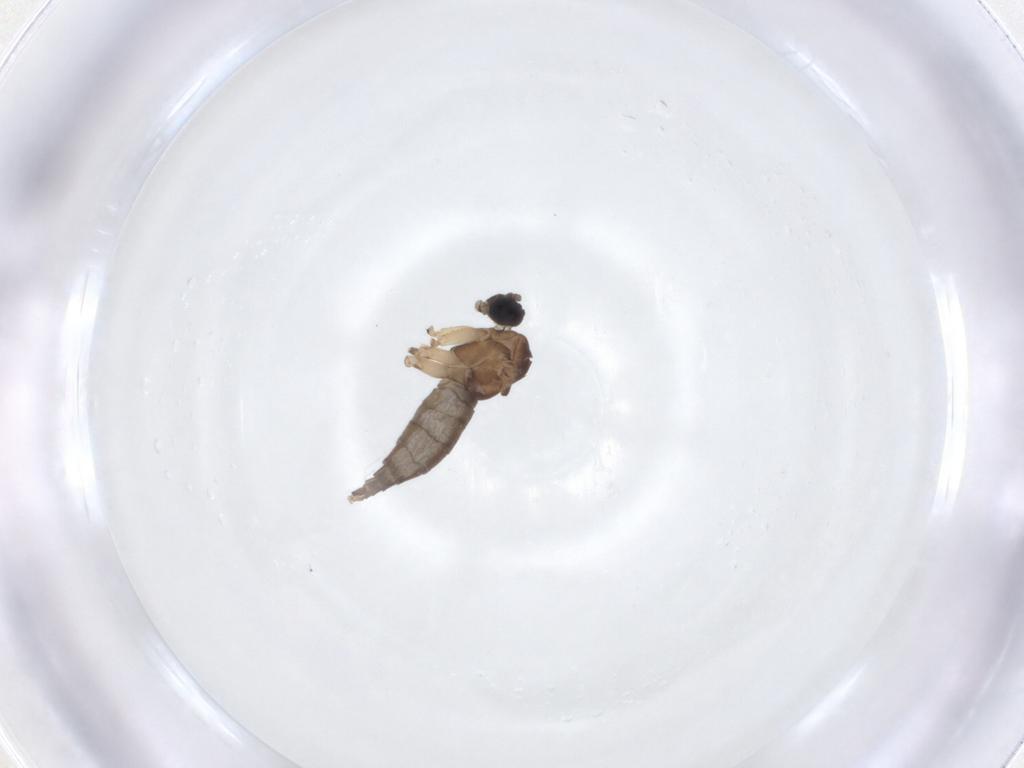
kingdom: Animalia
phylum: Arthropoda
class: Insecta
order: Diptera
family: Sciaridae
